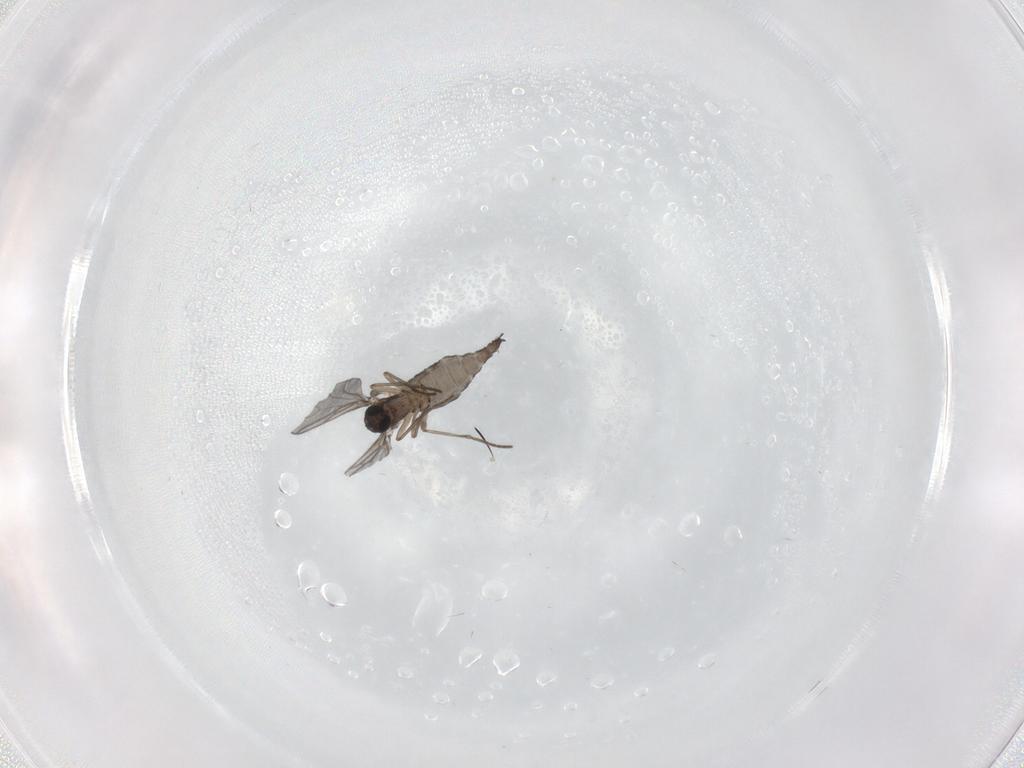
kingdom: Animalia
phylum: Arthropoda
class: Insecta
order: Diptera
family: Sciaridae
